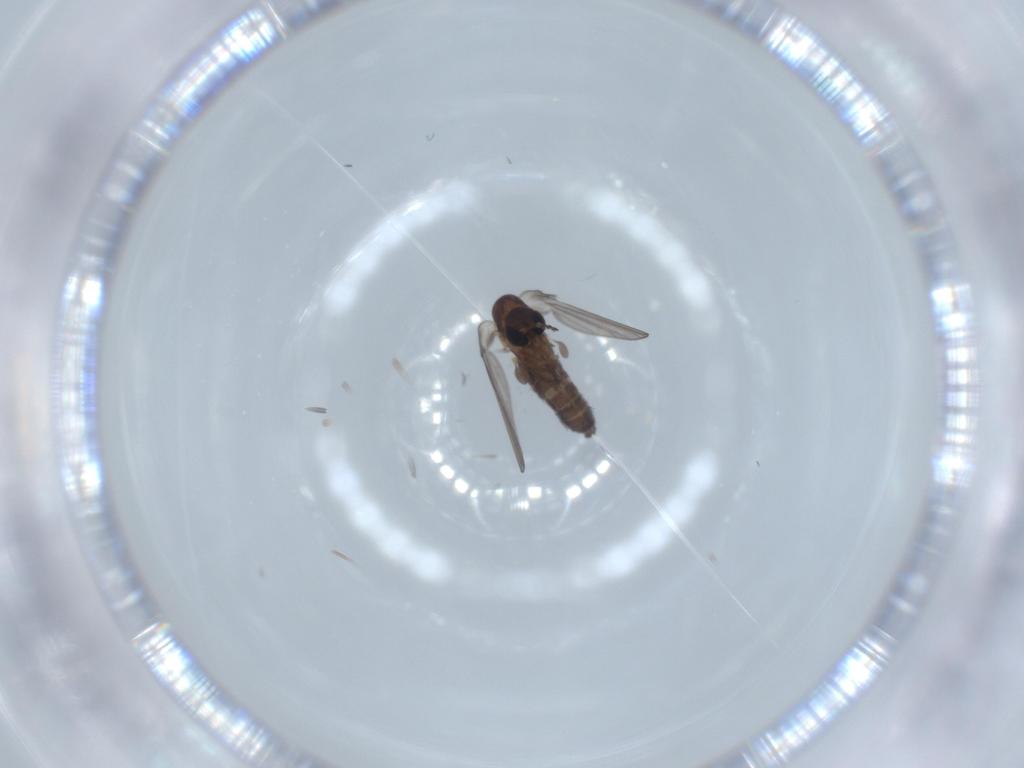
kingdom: Animalia
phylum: Arthropoda
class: Insecta
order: Diptera
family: Psychodidae
